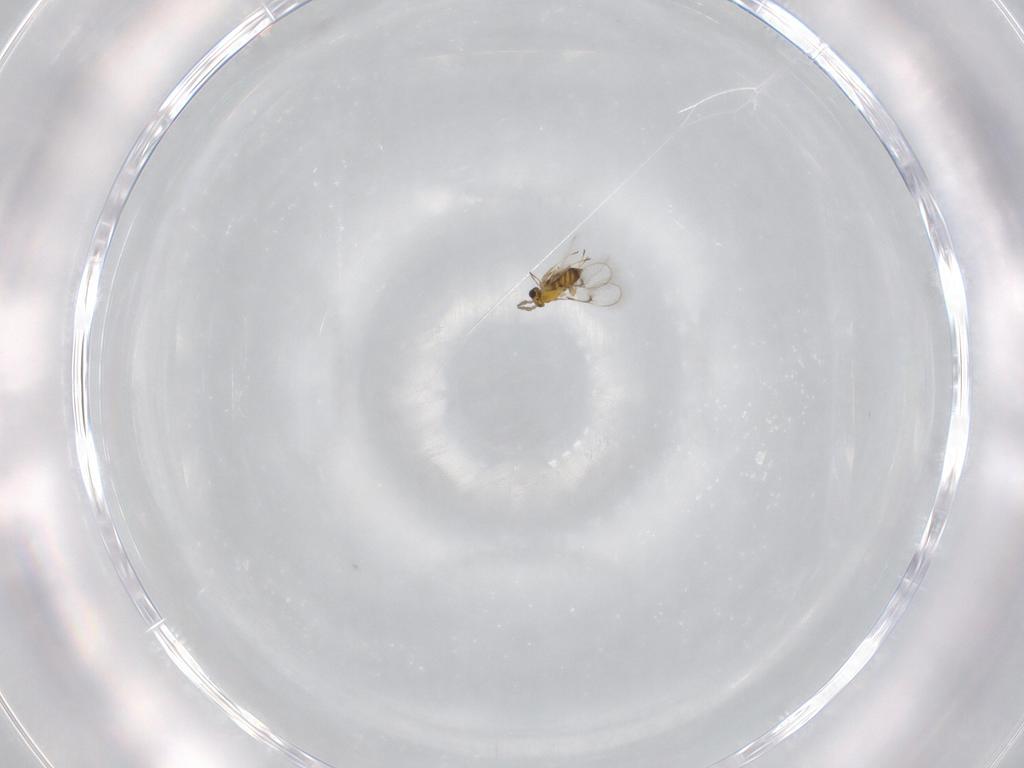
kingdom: Animalia
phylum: Arthropoda
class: Insecta
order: Hymenoptera
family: Trichogrammatidae
